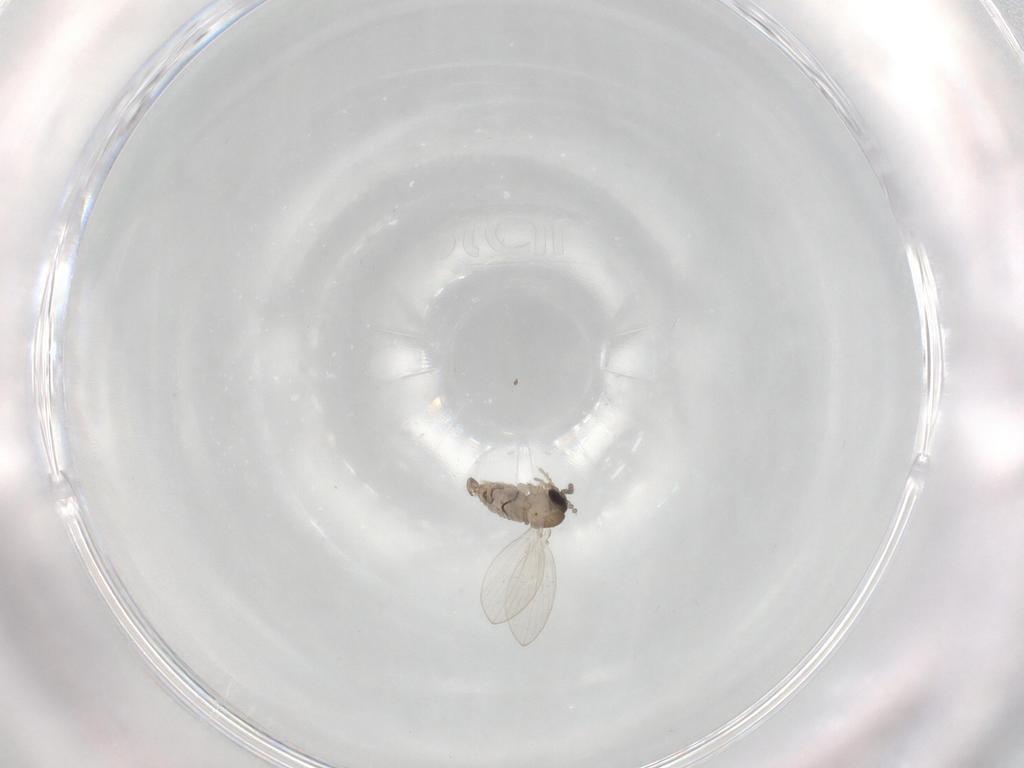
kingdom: Animalia
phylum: Arthropoda
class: Insecta
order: Diptera
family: Psychodidae
